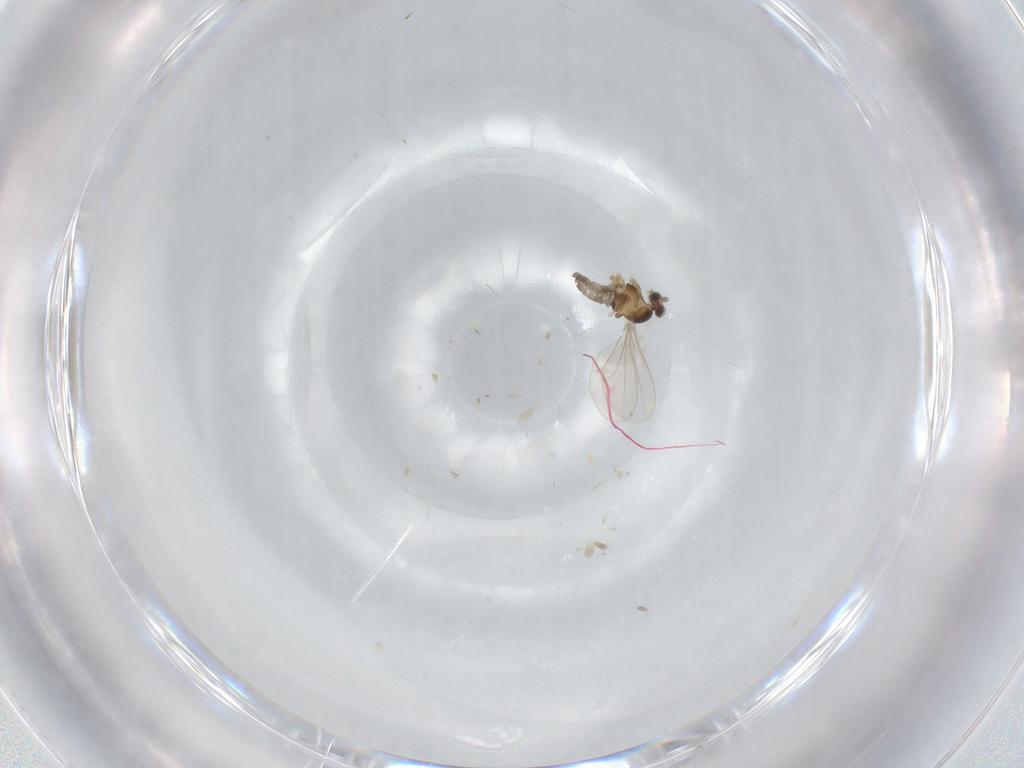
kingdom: Animalia
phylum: Arthropoda
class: Insecta
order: Diptera
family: Cecidomyiidae
